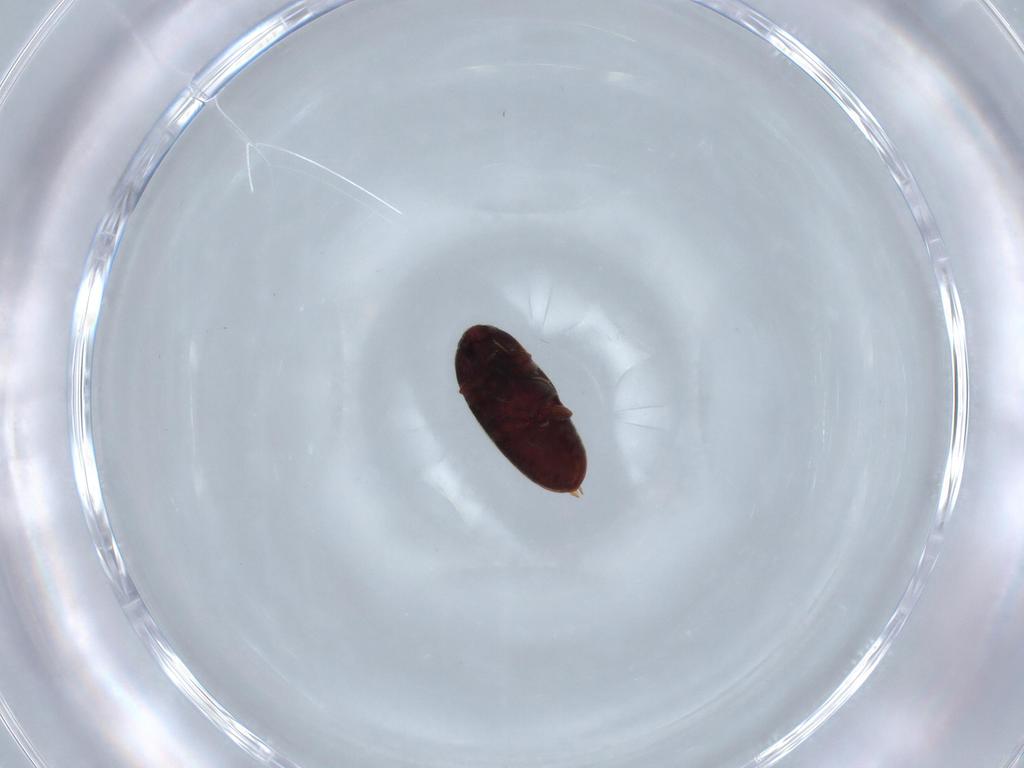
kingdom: Animalia
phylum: Arthropoda
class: Insecta
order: Coleoptera
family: Throscidae
